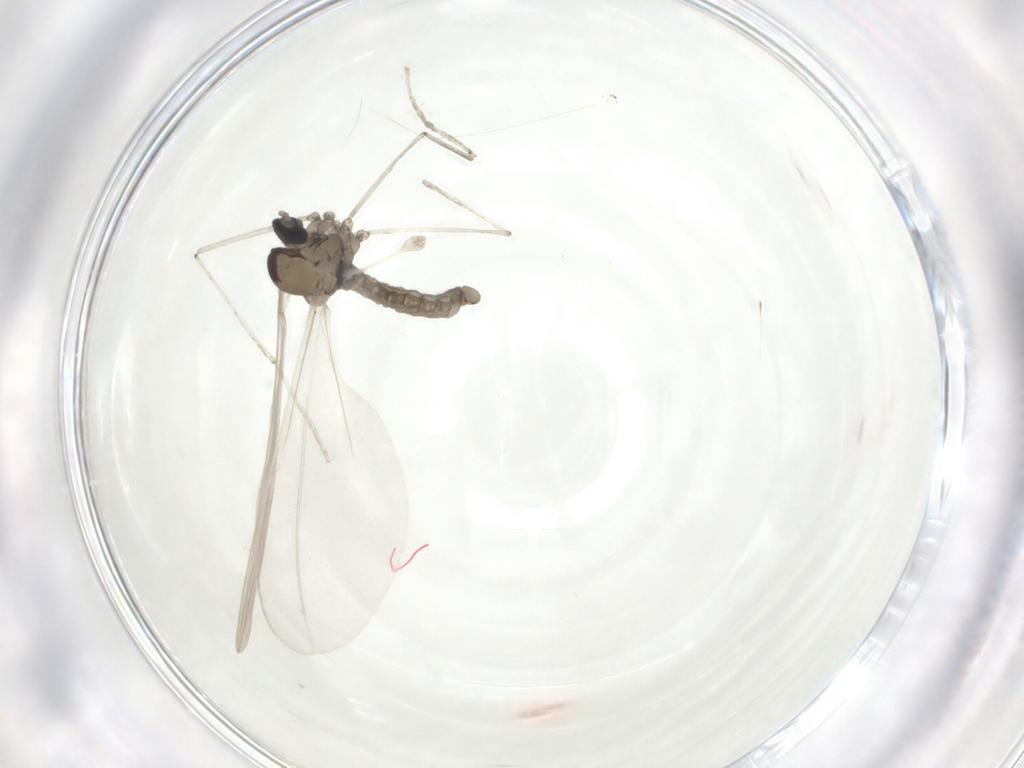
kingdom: Animalia
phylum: Arthropoda
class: Insecta
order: Diptera
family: Cecidomyiidae
